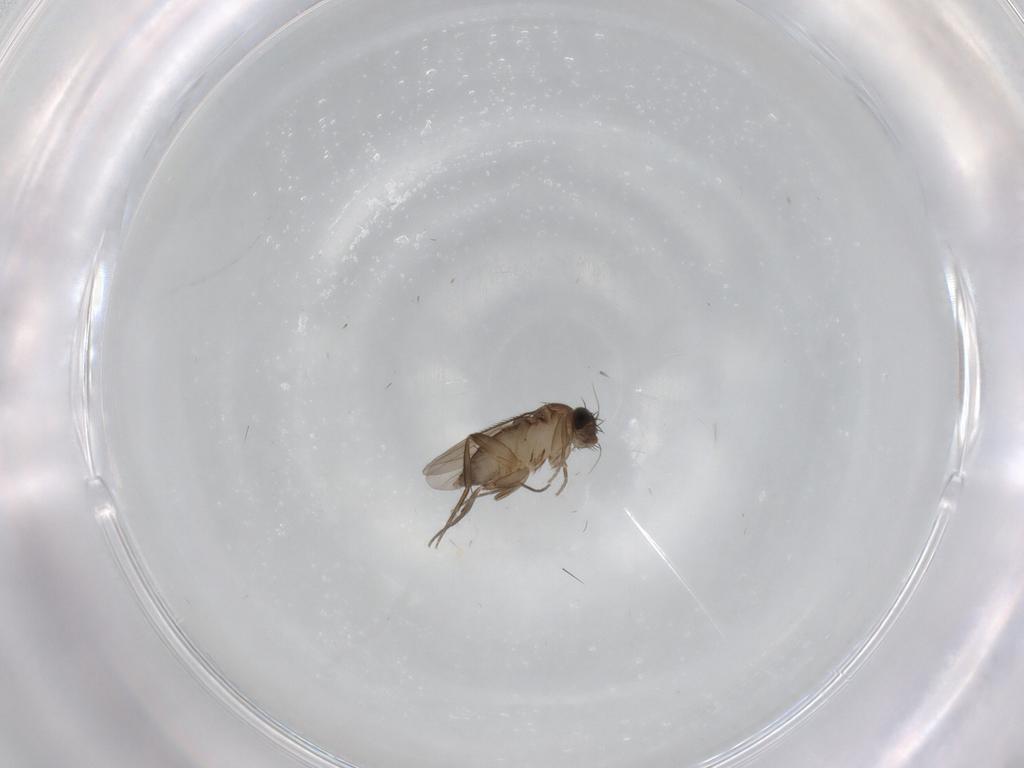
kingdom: Animalia
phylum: Arthropoda
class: Insecta
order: Diptera
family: Phoridae
